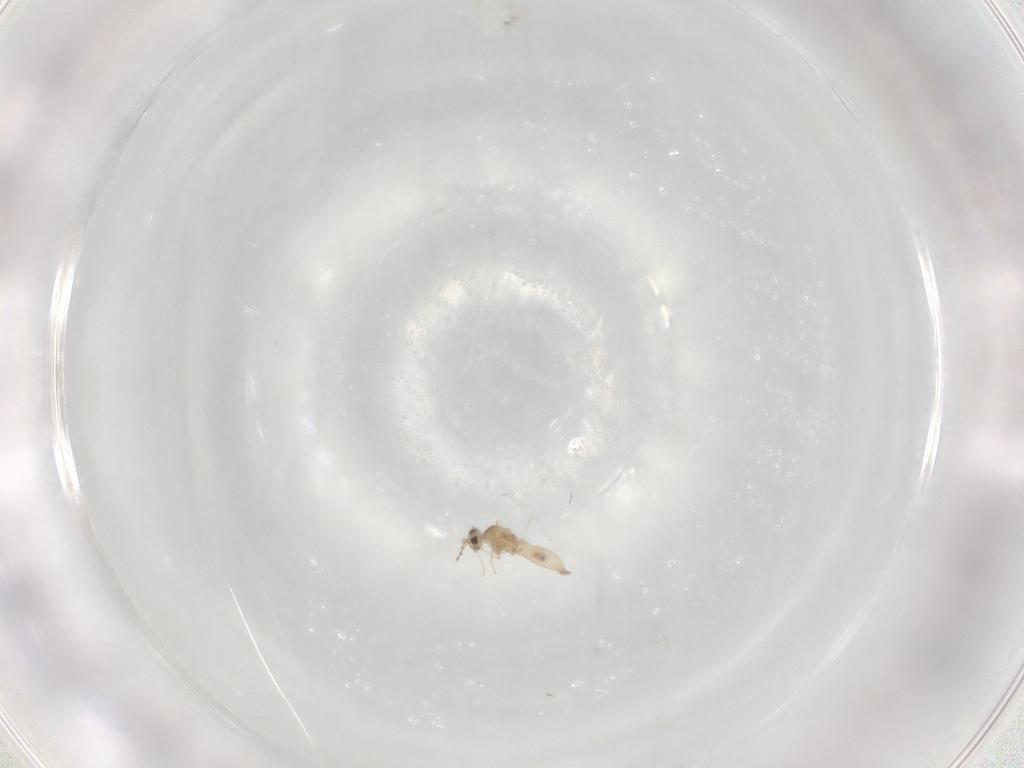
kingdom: Animalia
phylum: Arthropoda
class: Insecta
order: Diptera
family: Cecidomyiidae
